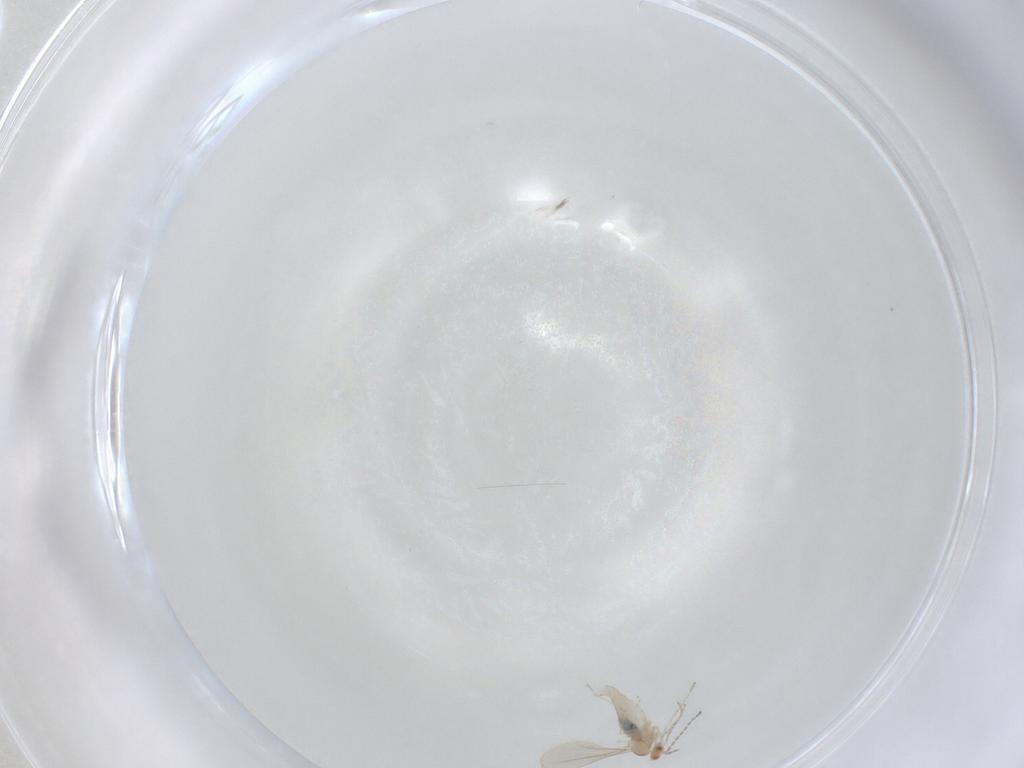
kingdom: Animalia
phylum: Arthropoda
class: Insecta
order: Diptera
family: Cecidomyiidae
